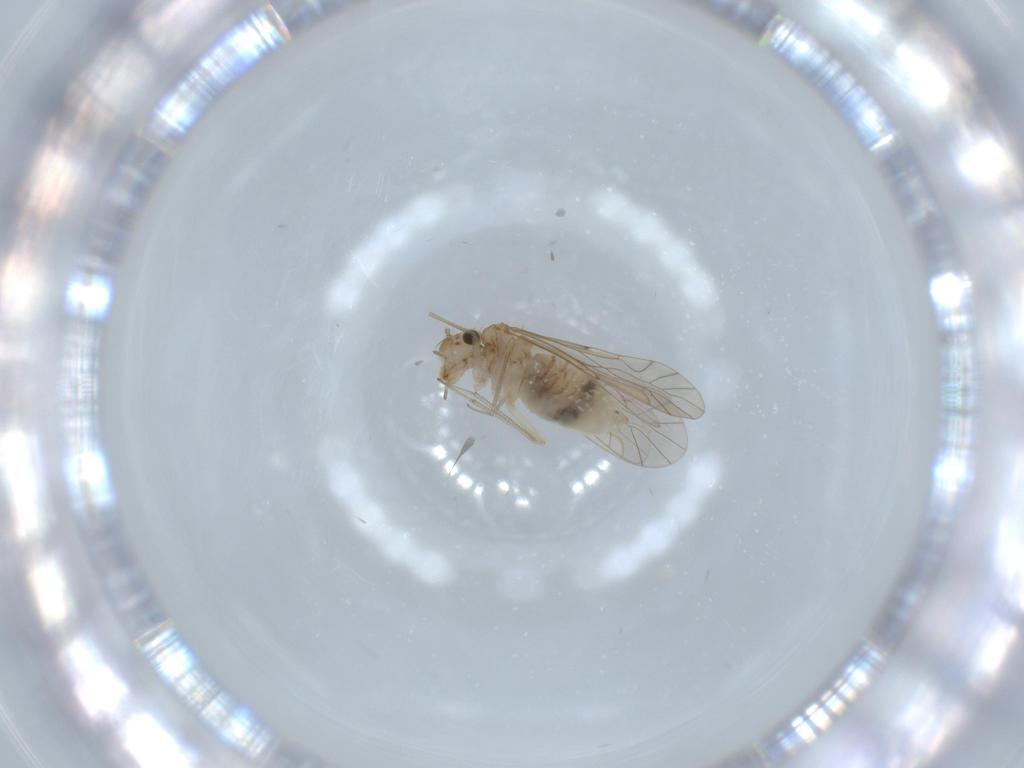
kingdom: Animalia
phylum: Arthropoda
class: Insecta
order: Psocodea
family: Lachesillidae
